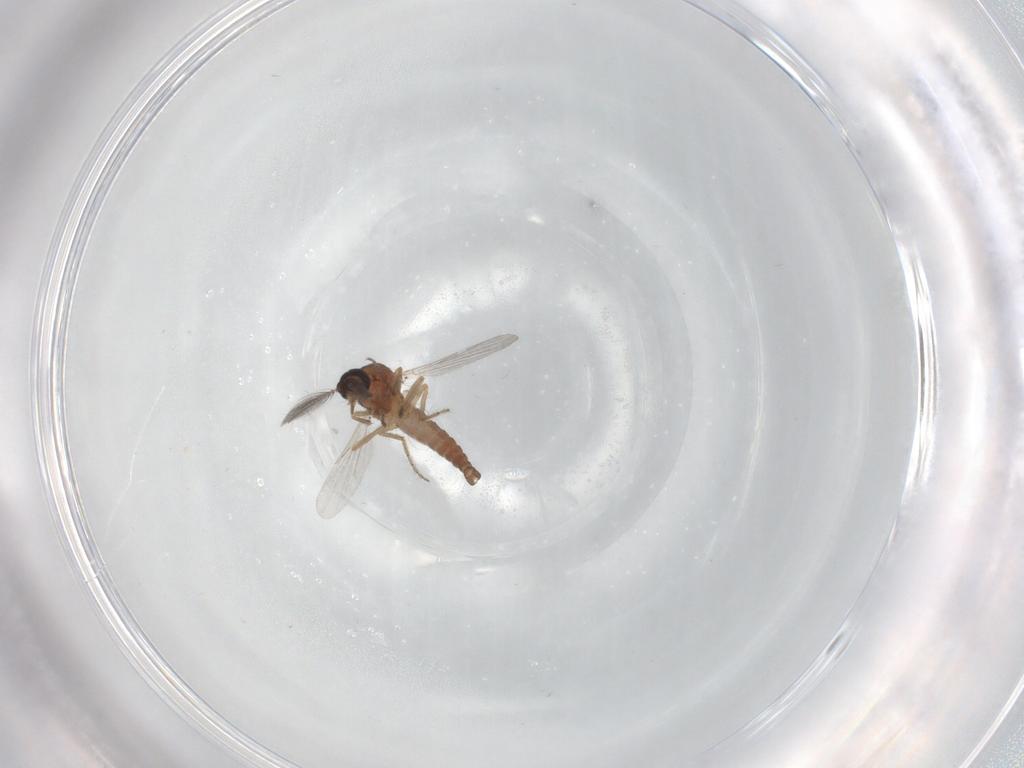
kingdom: Animalia
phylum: Arthropoda
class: Insecta
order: Diptera
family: Ceratopogonidae
